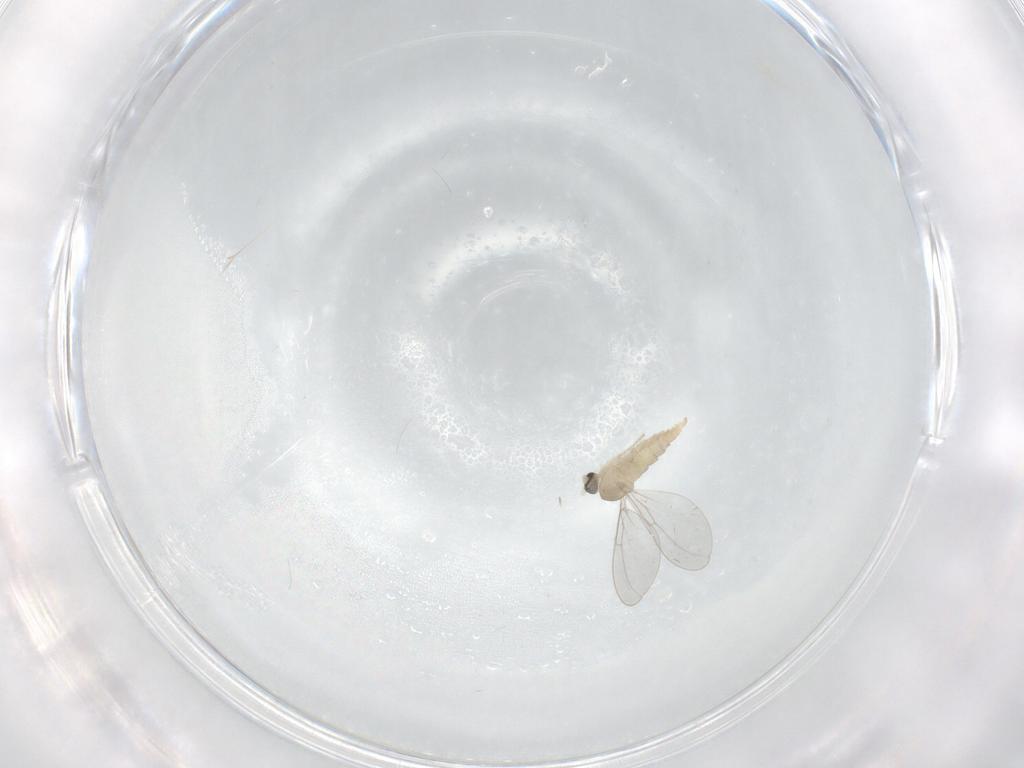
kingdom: Animalia
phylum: Arthropoda
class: Insecta
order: Diptera
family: Cecidomyiidae
